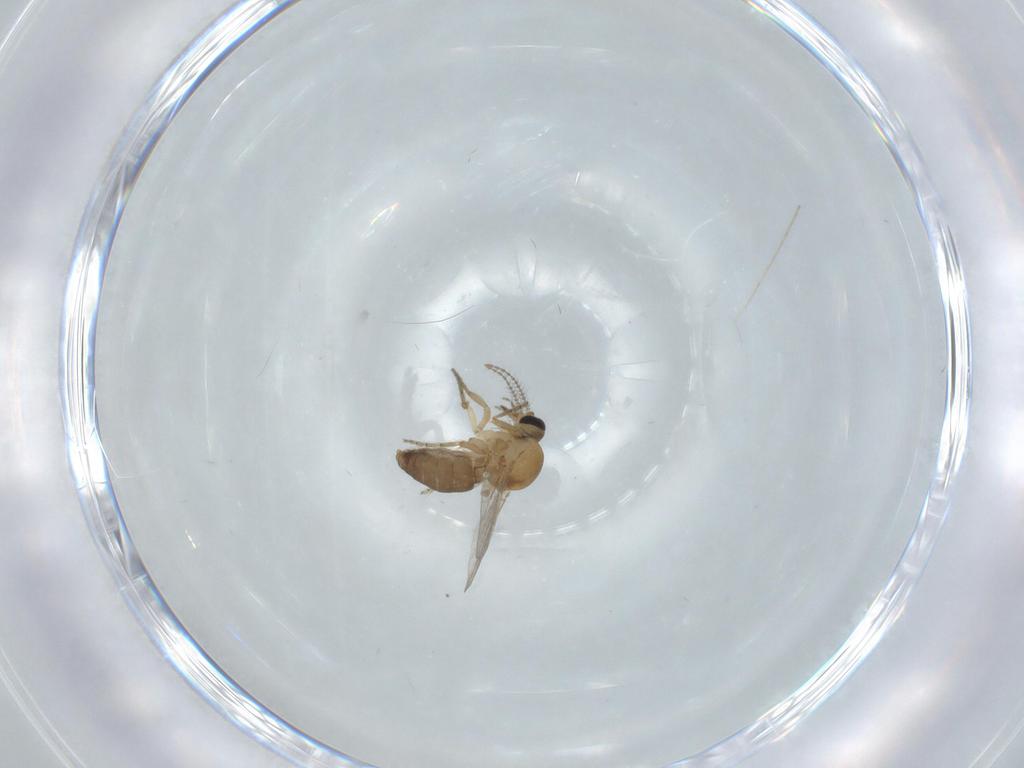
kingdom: Animalia
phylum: Arthropoda
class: Insecta
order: Diptera
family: Ceratopogonidae
